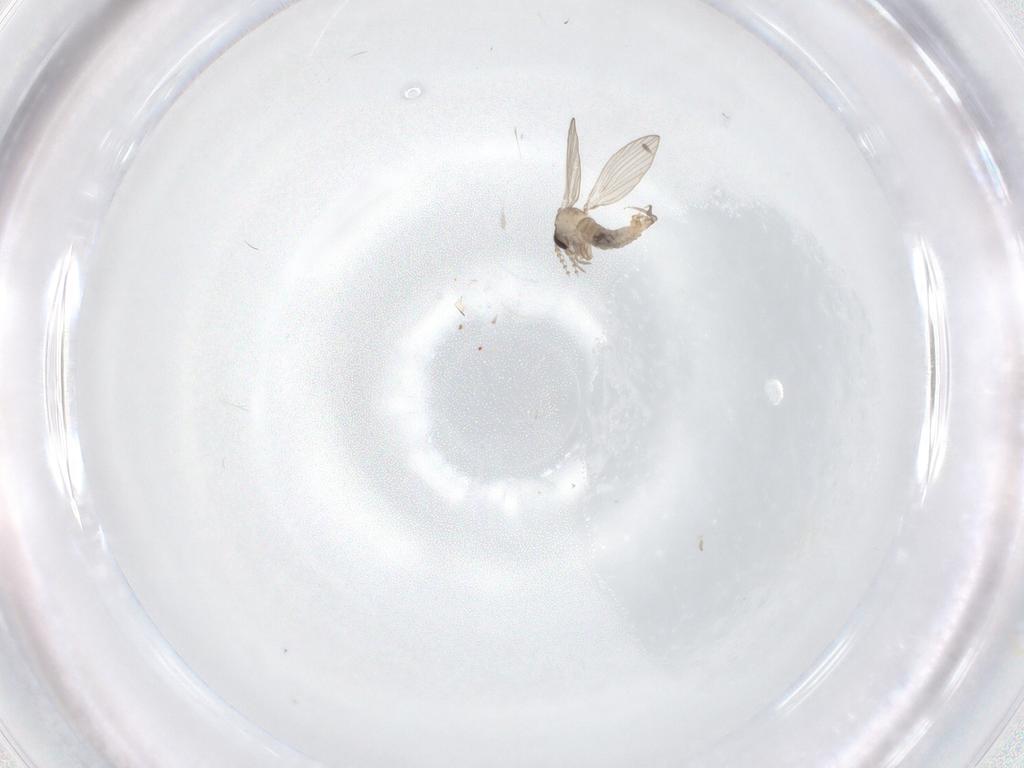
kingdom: Animalia
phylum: Arthropoda
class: Insecta
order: Diptera
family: Psychodidae
